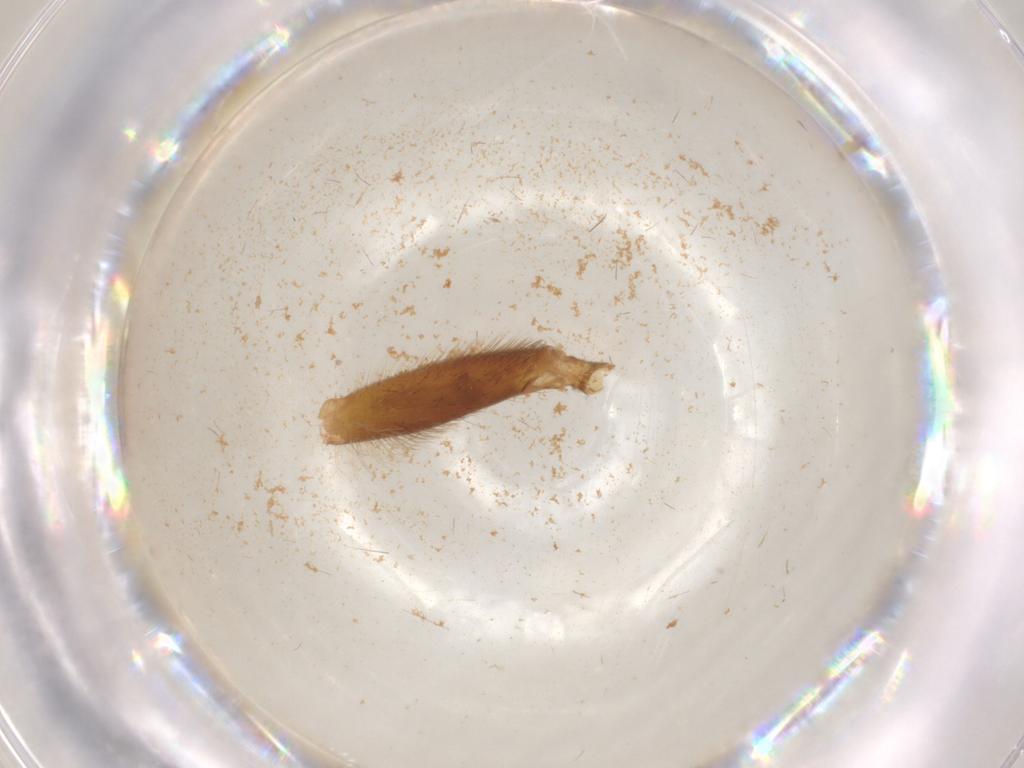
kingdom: Animalia
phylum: Arthropoda
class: Insecta
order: Diptera
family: Tabanidae
